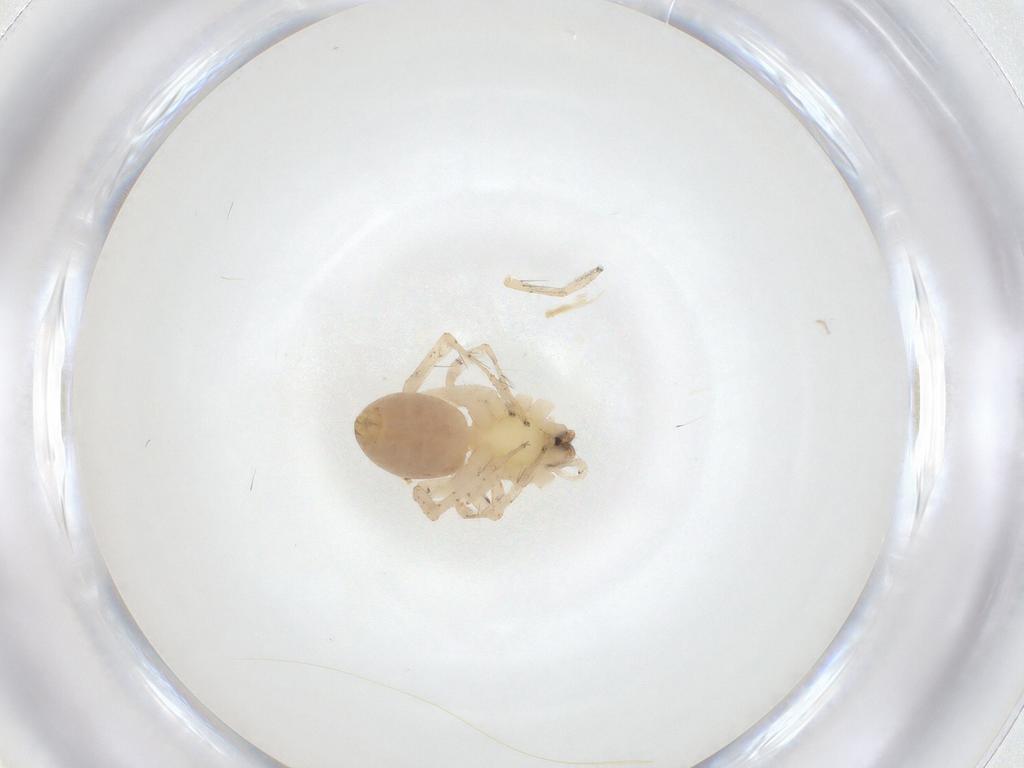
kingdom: Animalia
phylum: Arthropoda
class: Arachnida
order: Araneae
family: Anyphaenidae
